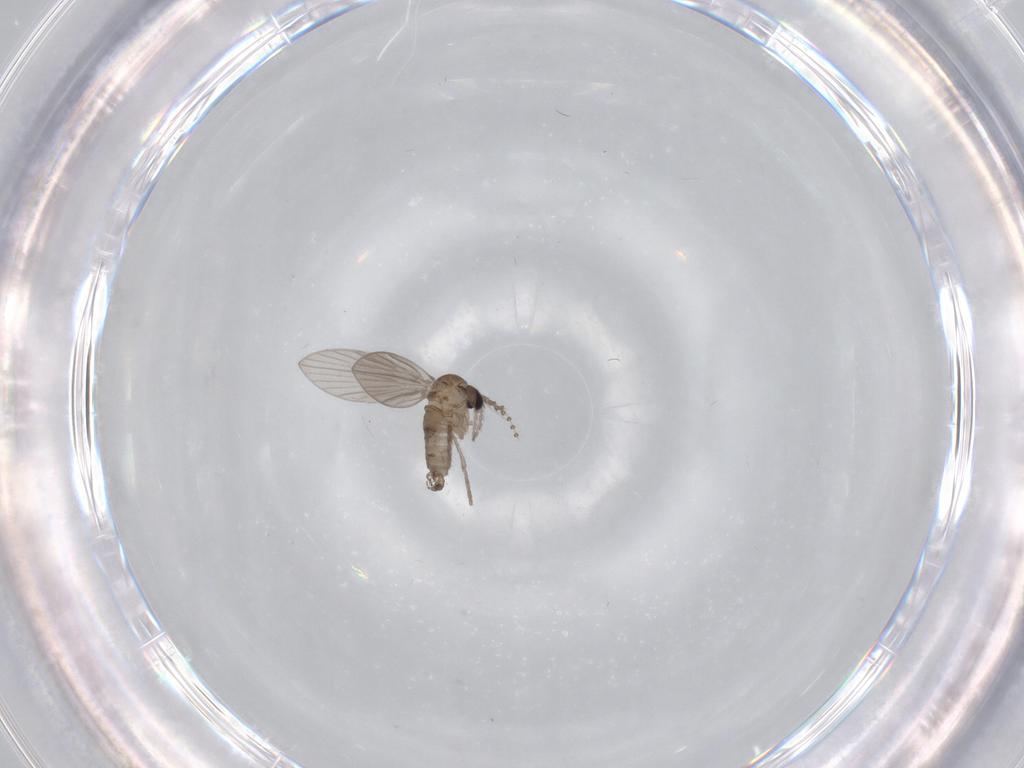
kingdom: Animalia
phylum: Arthropoda
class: Insecta
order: Diptera
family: Psychodidae
